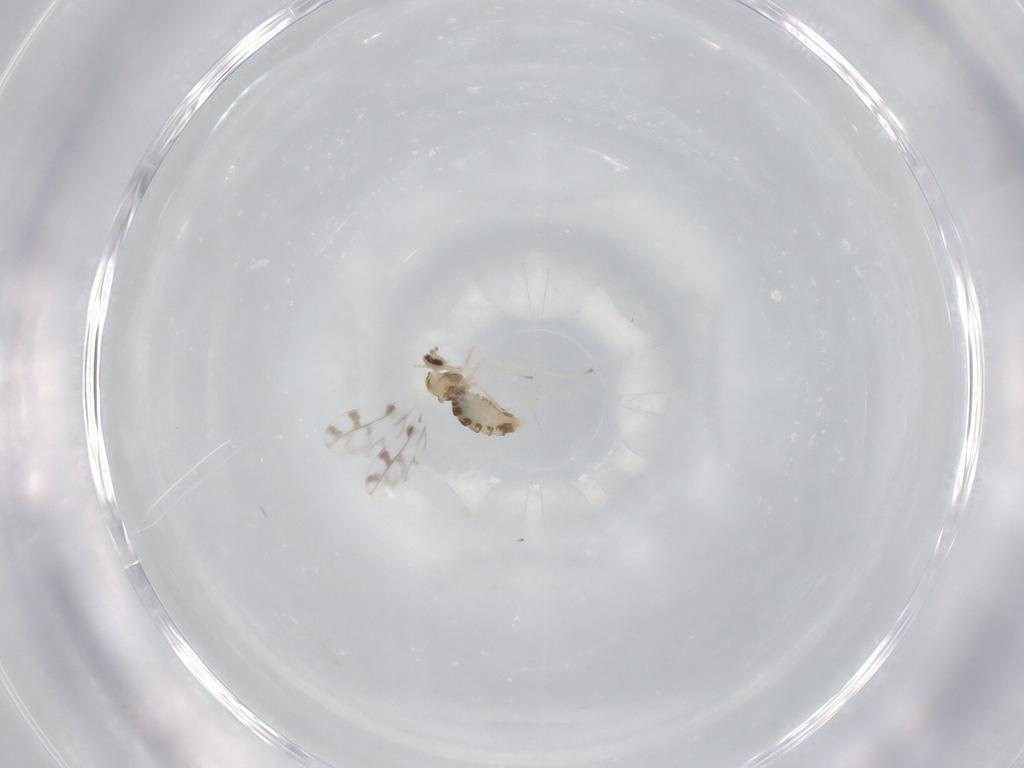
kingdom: Animalia
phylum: Arthropoda
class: Insecta
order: Diptera
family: Cecidomyiidae
